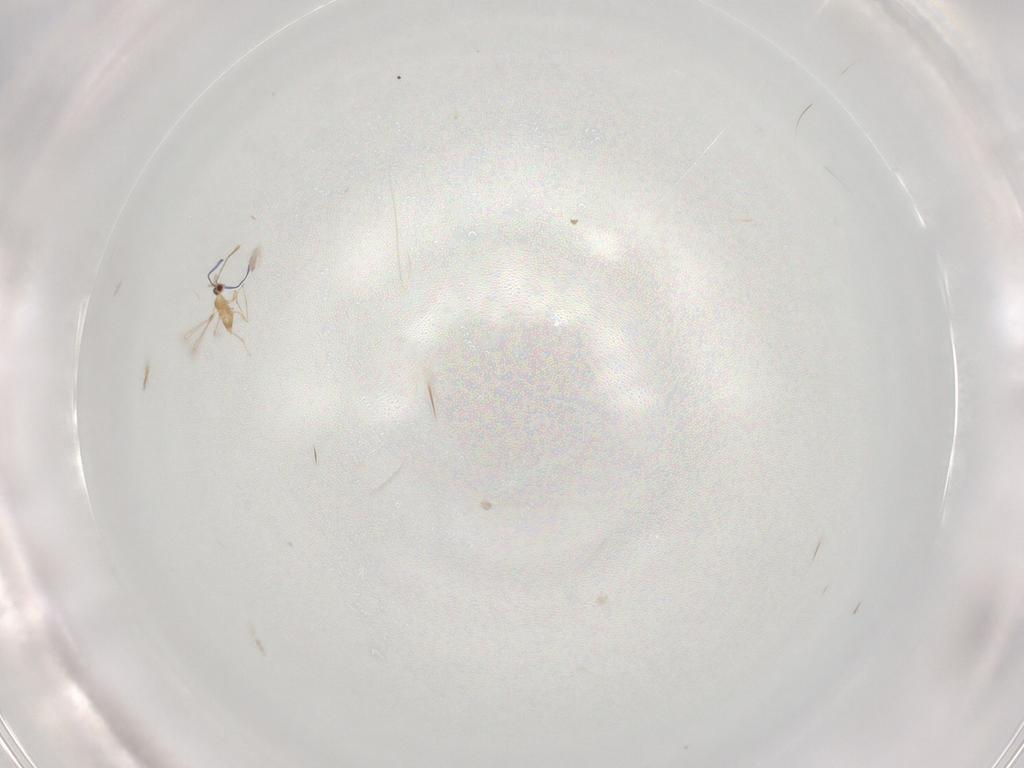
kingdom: Animalia
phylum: Arthropoda
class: Insecta
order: Hymenoptera
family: Mymaridae
